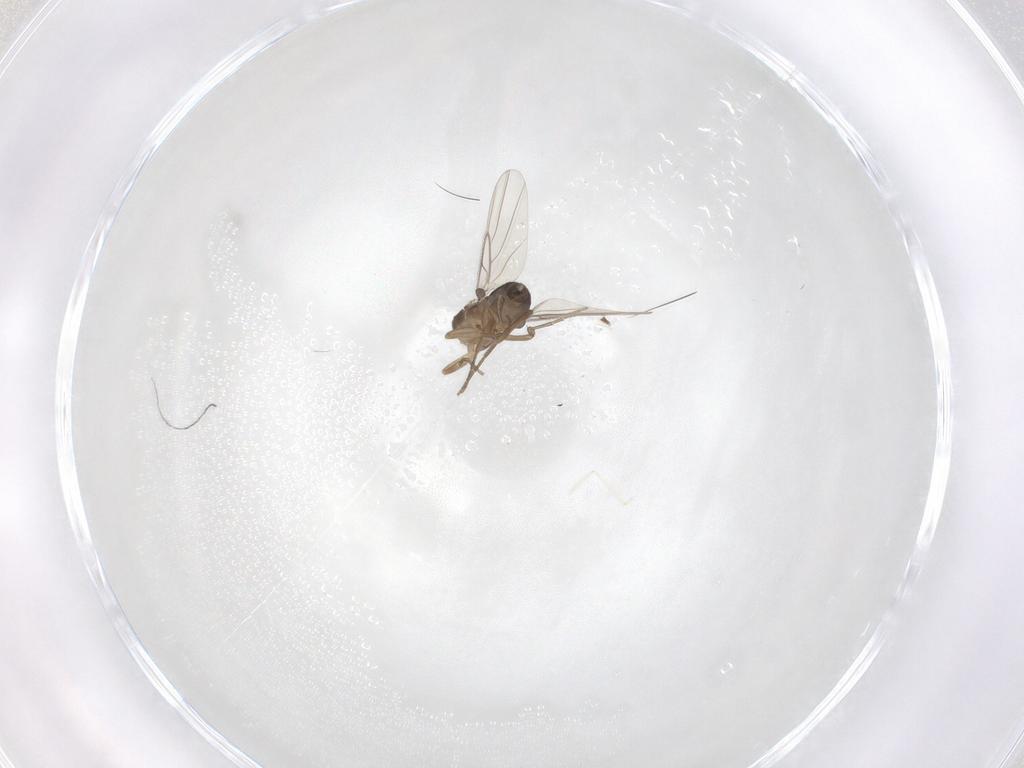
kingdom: Animalia
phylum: Arthropoda
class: Insecta
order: Diptera
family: Phoridae
